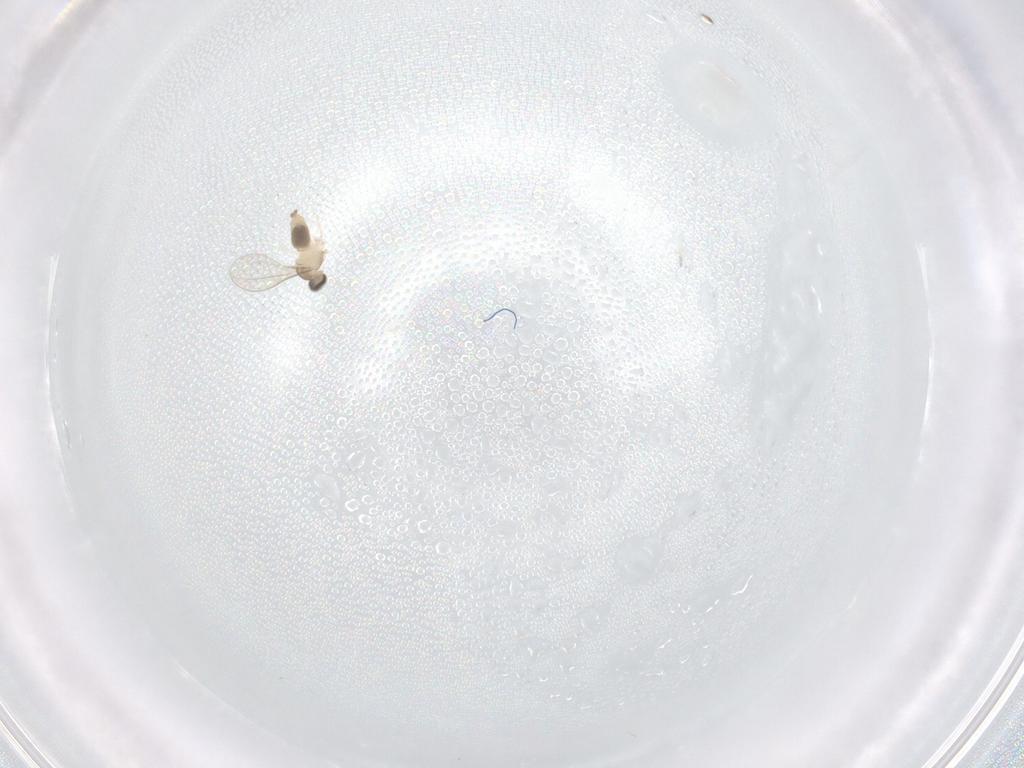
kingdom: Animalia
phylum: Arthropoda
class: Insecta
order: Diptera
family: Cecidomyiidae
